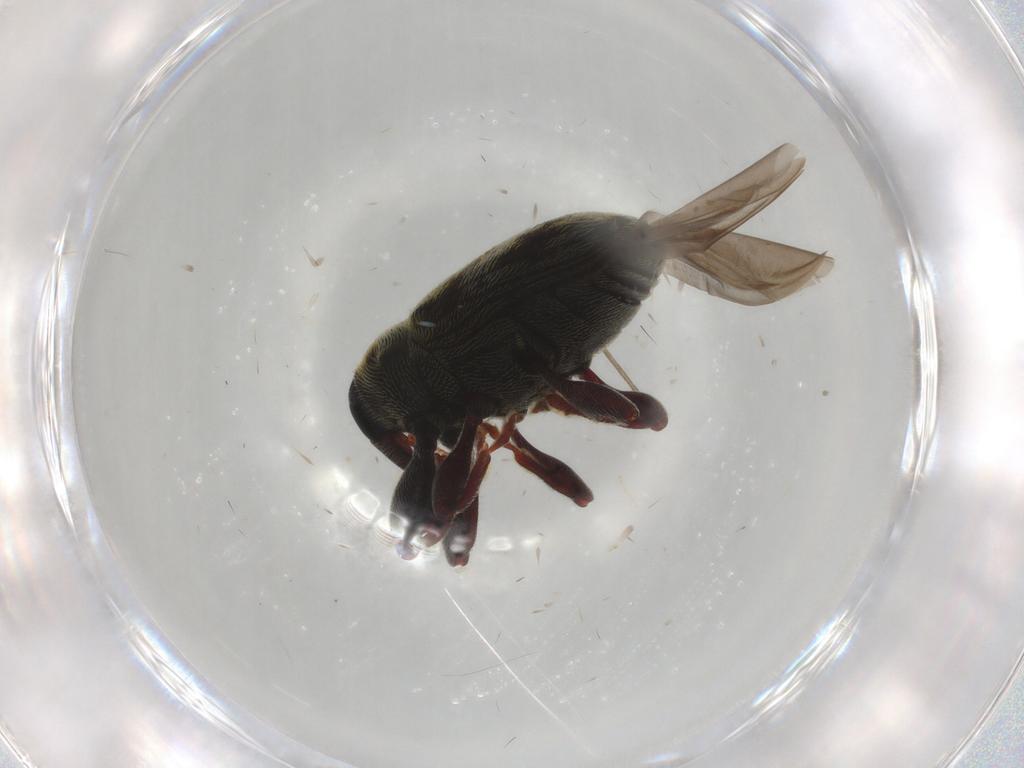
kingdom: Animalia
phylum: Arthropoda
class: Insecta
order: Coleoptera
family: Curculionidae
